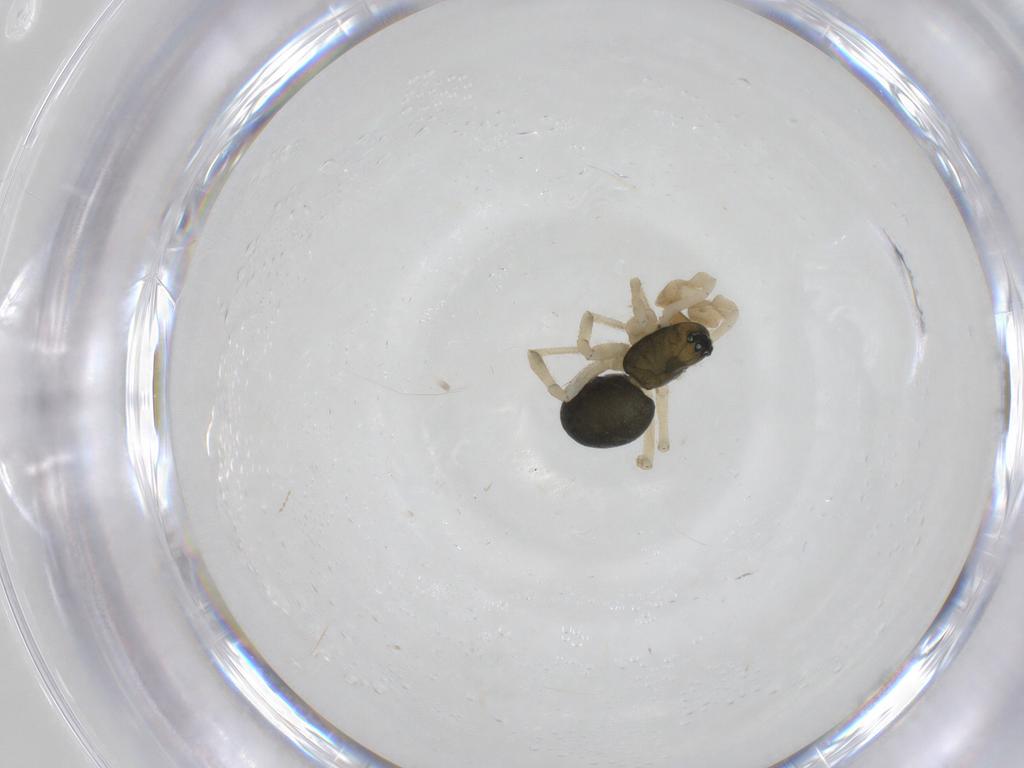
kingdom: Animalia
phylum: Arthropoda
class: Arachnida
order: Araneae
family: Linyphiidae
